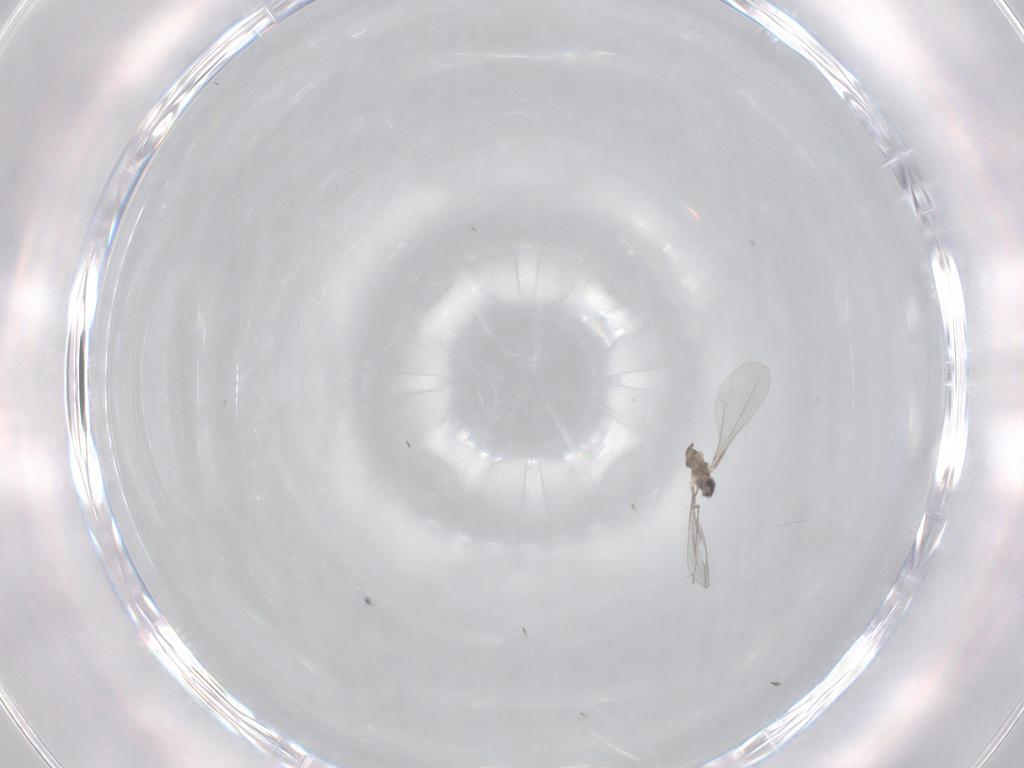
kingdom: Animalia
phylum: Arthropoda
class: Insecta
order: Diptera
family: Cecidomyiidae
